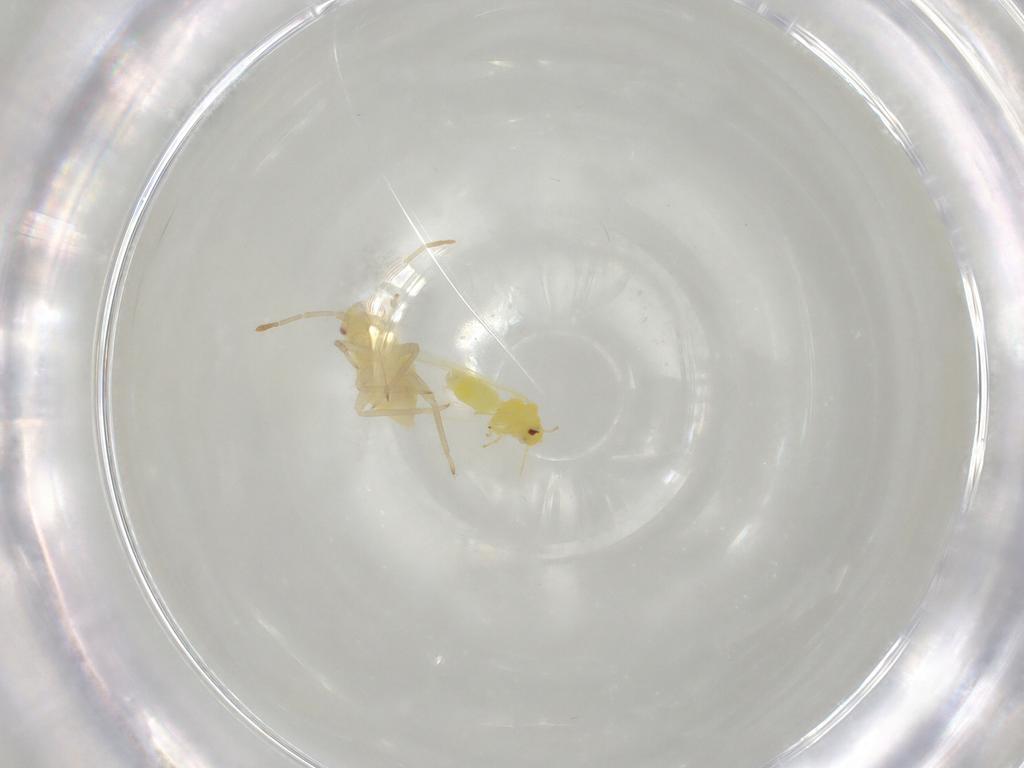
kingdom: Animalia
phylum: Arthropoda
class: Insecta
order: Hemiptera
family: Miridae
